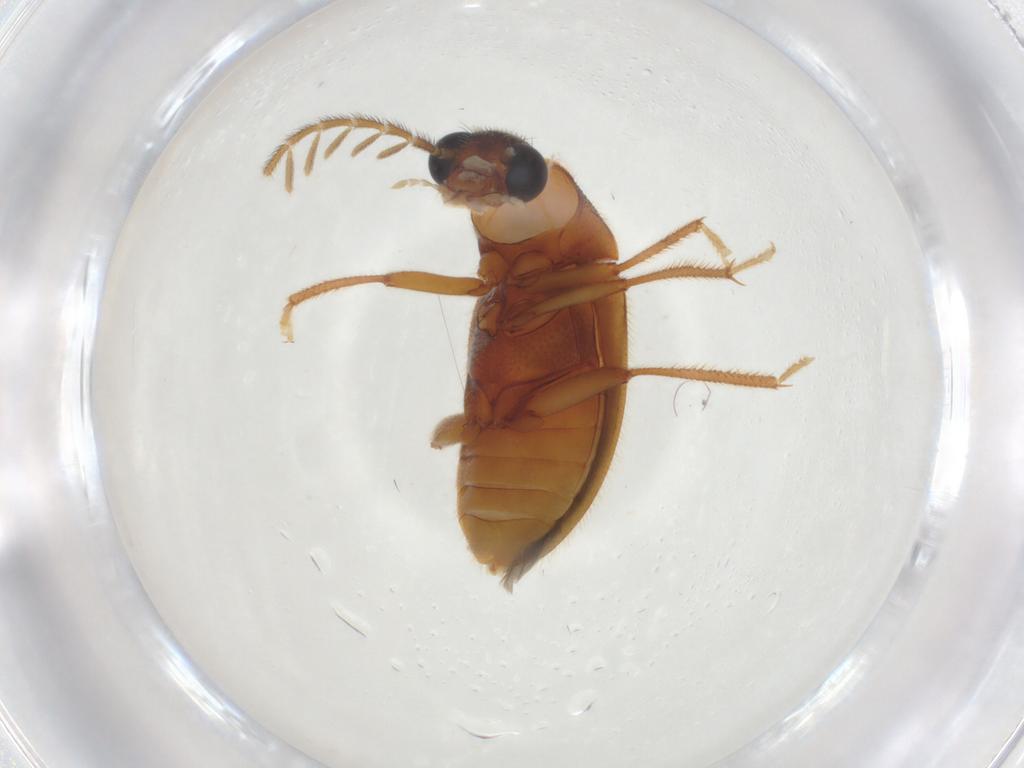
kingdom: Animalia
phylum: Arthropoda
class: Insecta
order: Coleoptera
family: Ptilodactylidae
